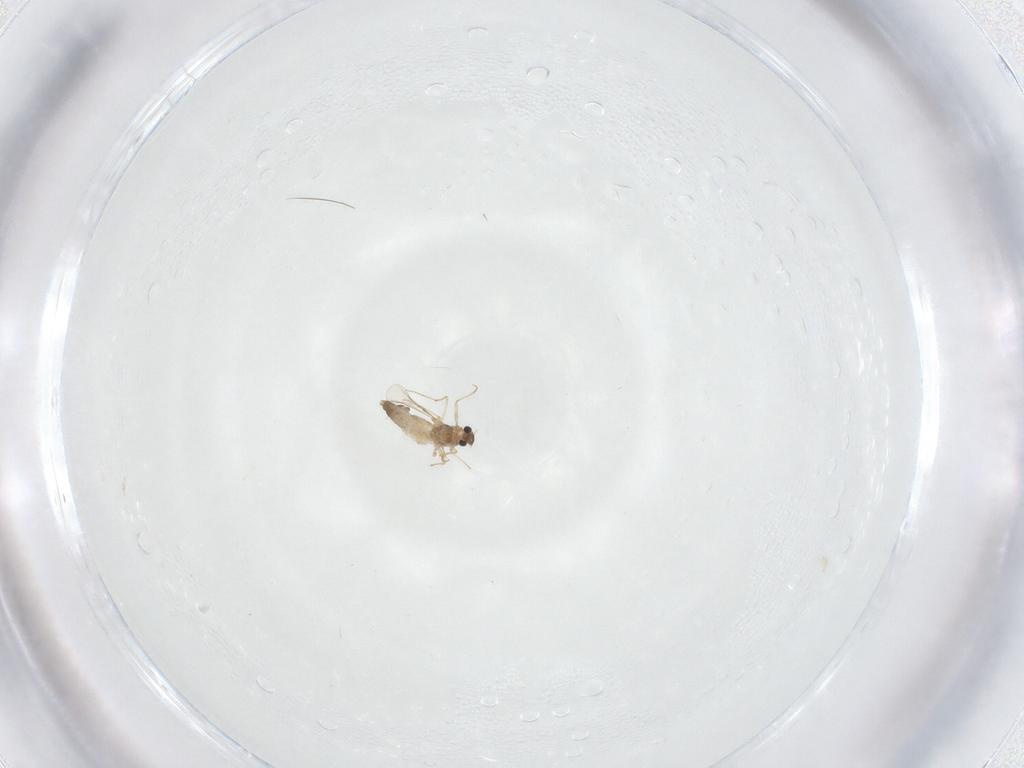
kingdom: Animalia
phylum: Arthropoda
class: Insecta
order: Diptera
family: Chironomidae
